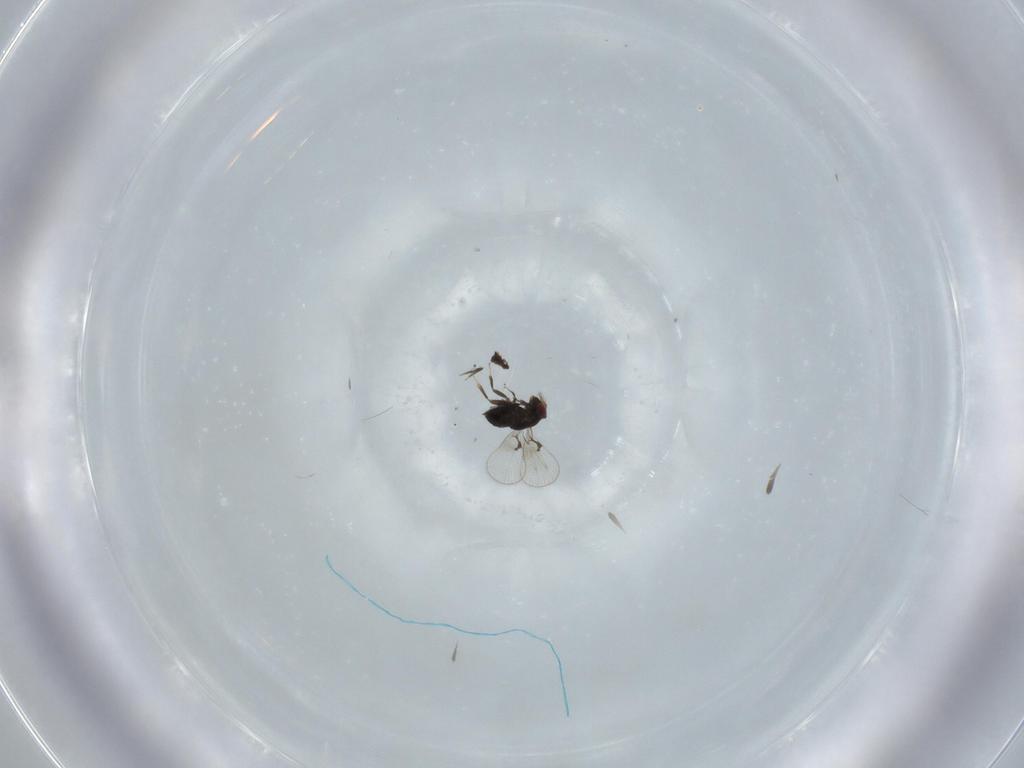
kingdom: Animalia
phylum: Arthropoda
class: Insecta
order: Hymenoptera
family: Trichogrammatidae
